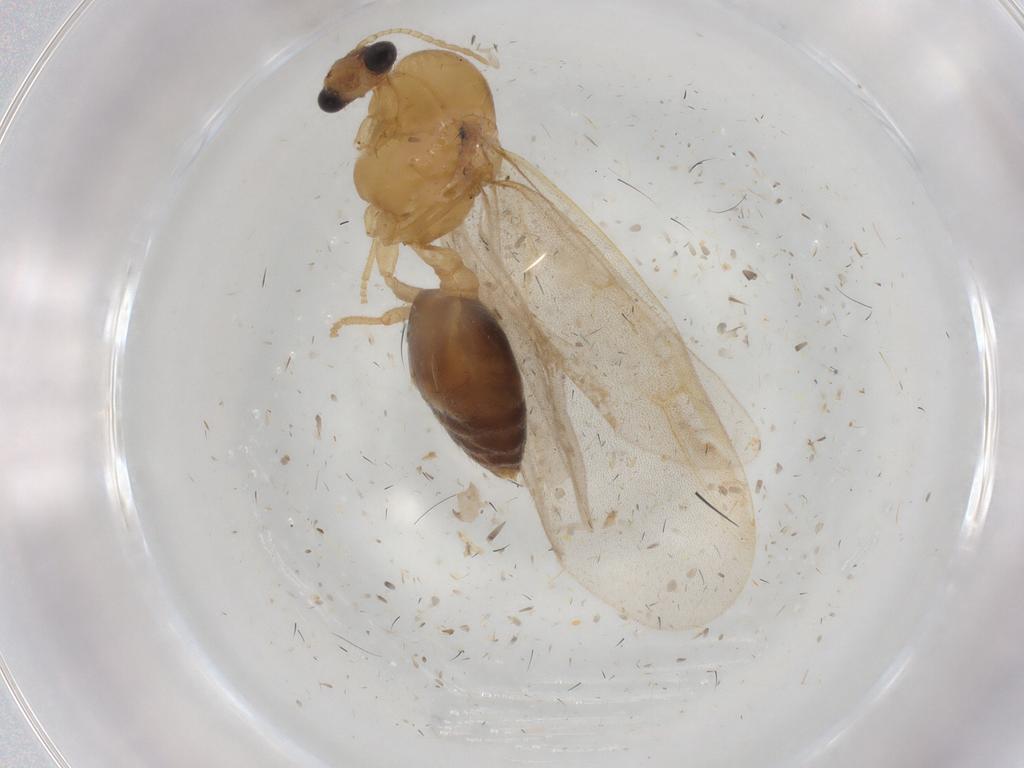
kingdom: Animalia
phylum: Arthropoda
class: Insecta
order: Hymenoptera
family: Formicidae
